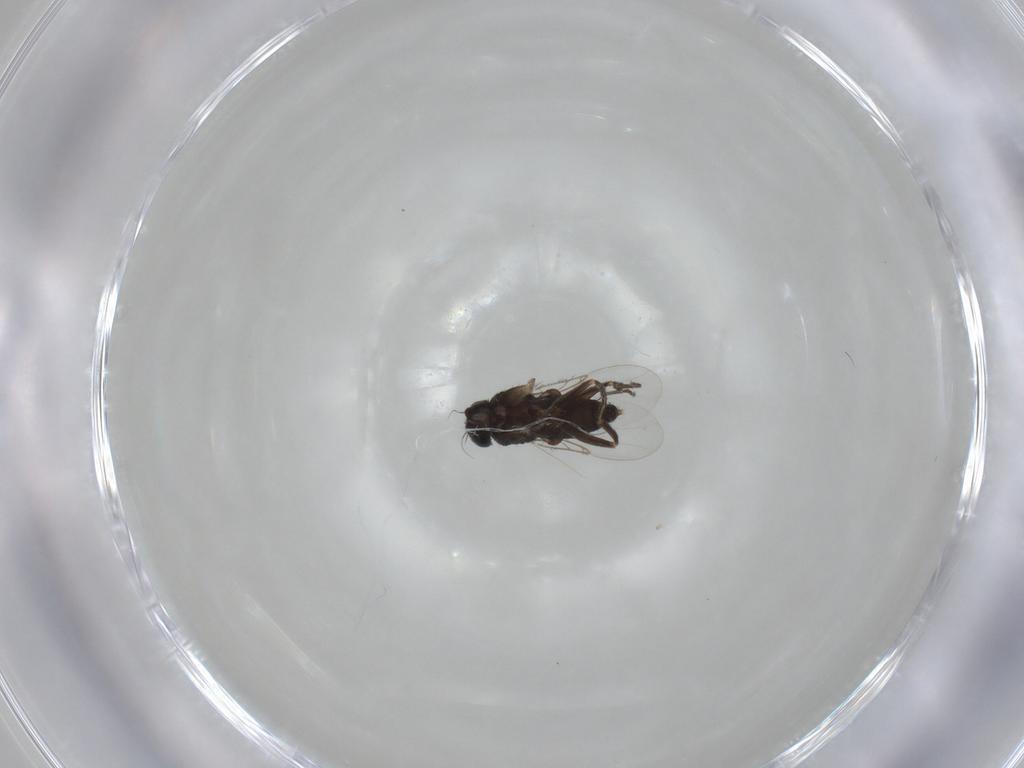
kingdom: Animalia
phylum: Arthropoda
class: Insecta
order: Diptera
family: Phoridae
